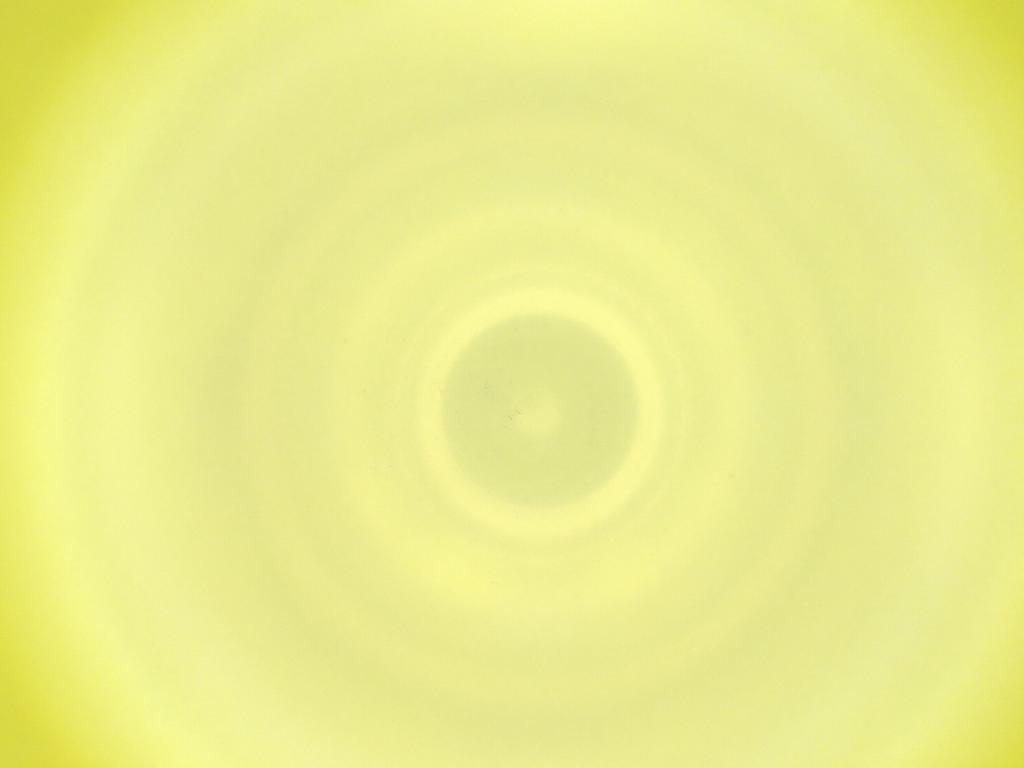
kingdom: Animalia
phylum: Arthropoda
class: Insecta
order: Diptera
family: Cecidomyiidae
